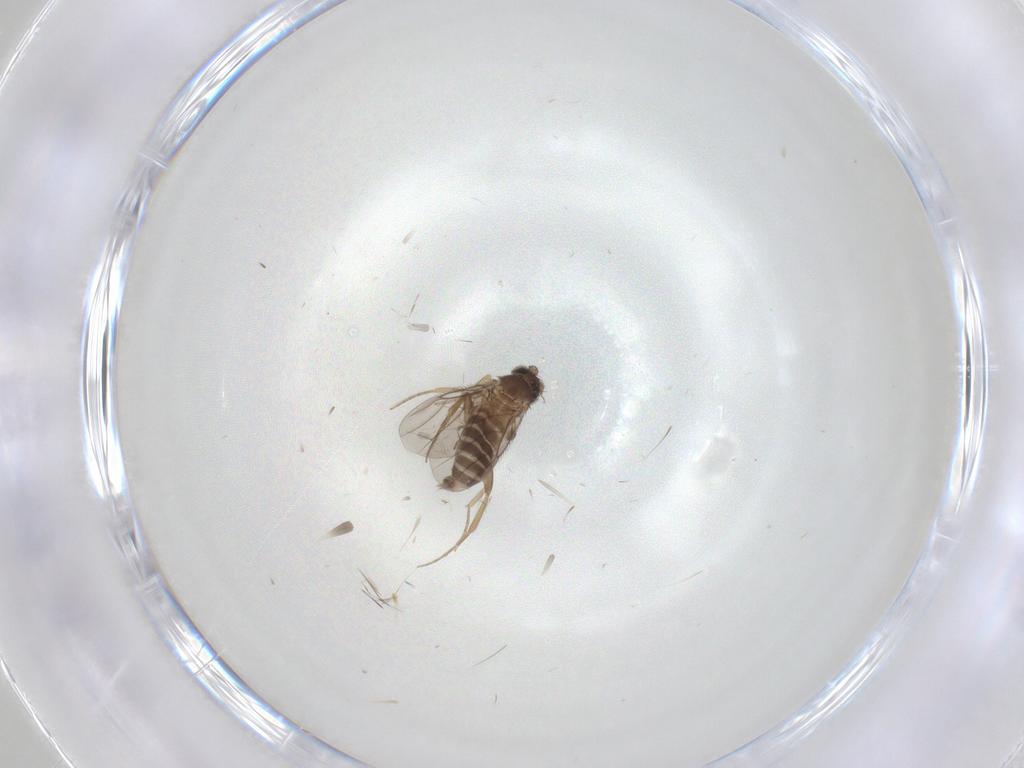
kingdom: Animalia
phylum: Arthropoda
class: Insecta
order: Diptera
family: Phoridae
